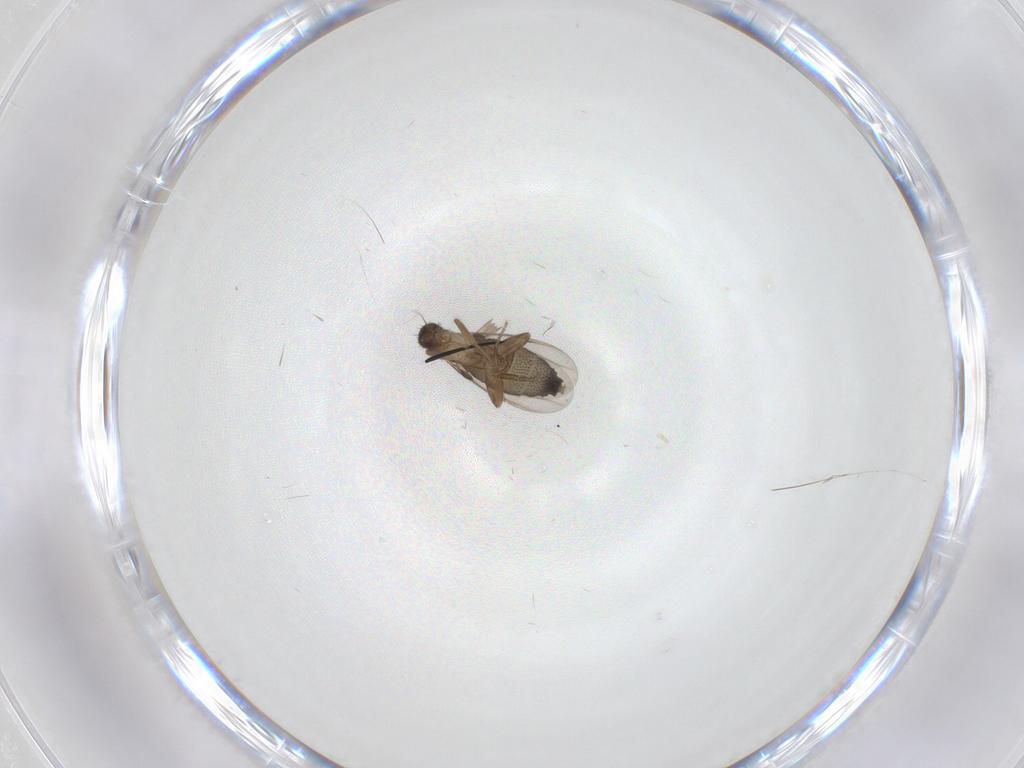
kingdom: Animalia
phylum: Arthropoda
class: Insecta
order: Diptera
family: Phoridae
